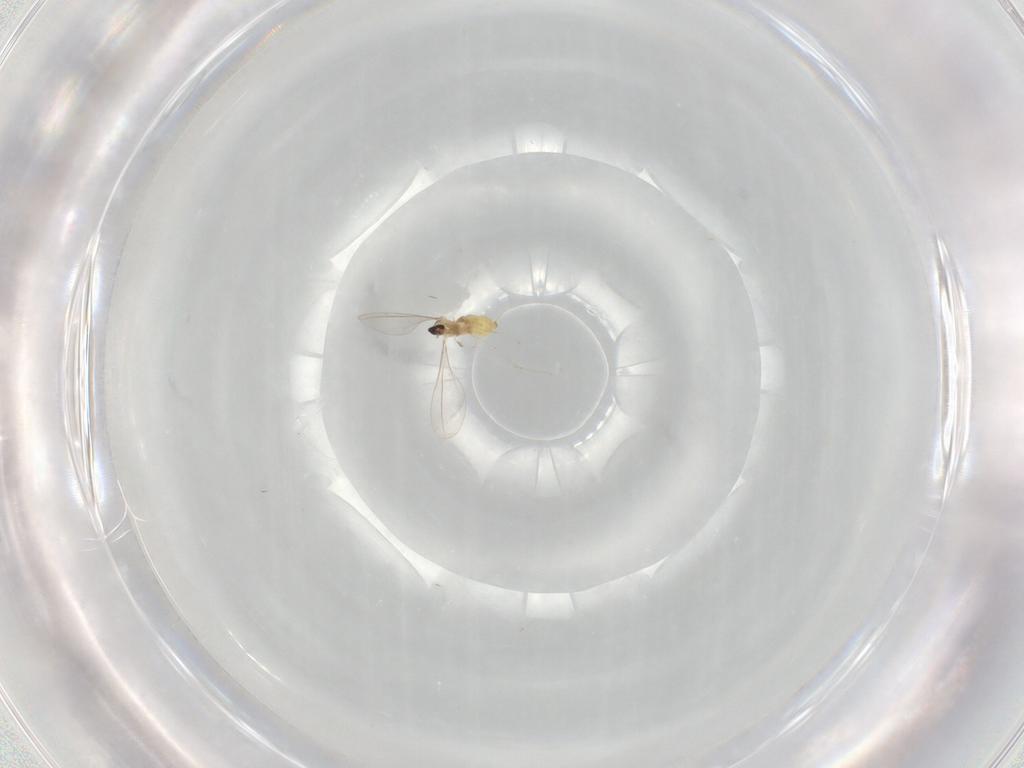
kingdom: Animalia
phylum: Arthropoda
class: Insecta
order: Diptera
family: Cecidomyiidae
